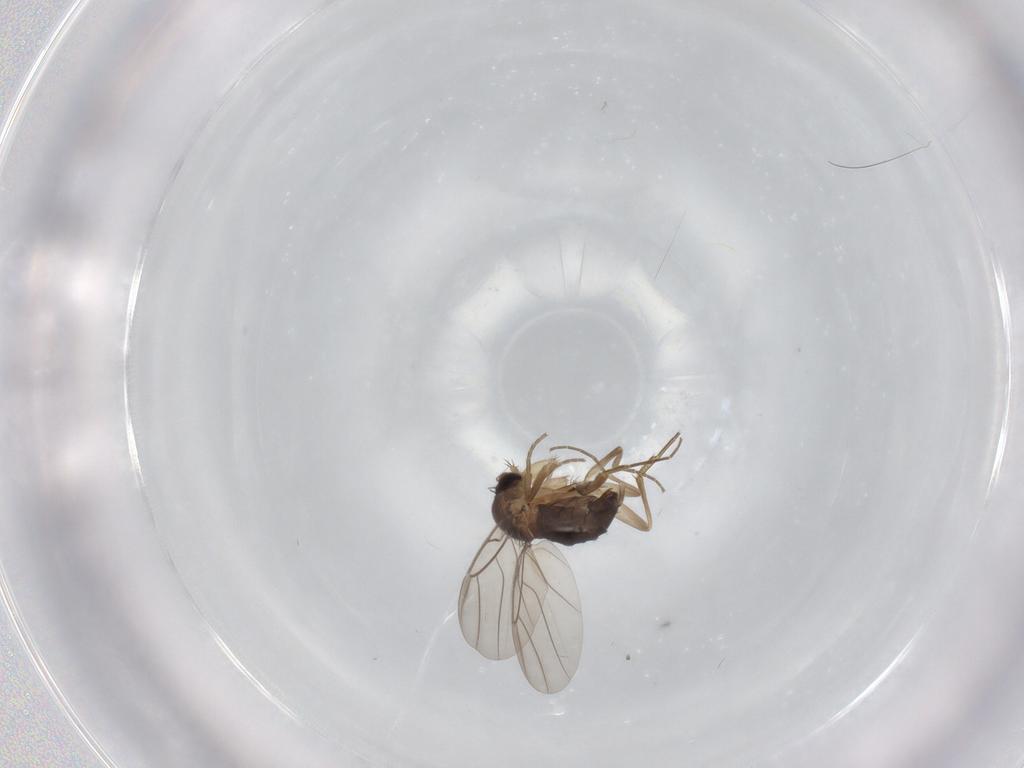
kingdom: Animalia
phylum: Arthropoda
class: Insecta
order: Diptera
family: Phoridae
